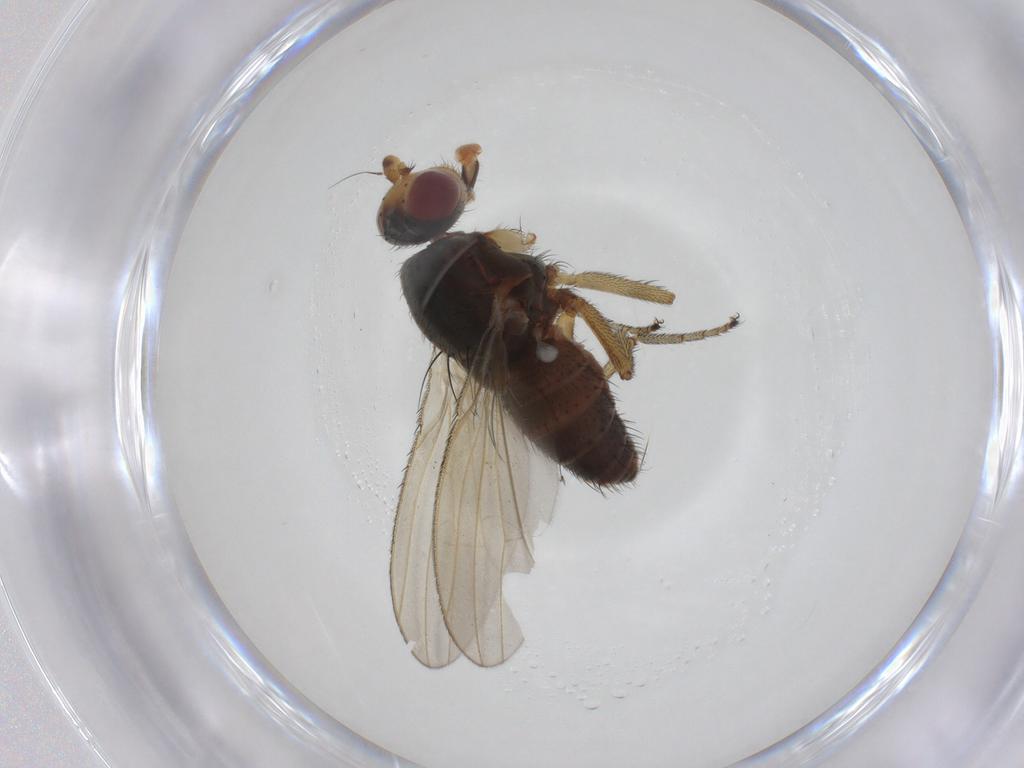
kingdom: Animalia
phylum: Arthropoda
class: Insecta
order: Diptera
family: Ulidiidae
